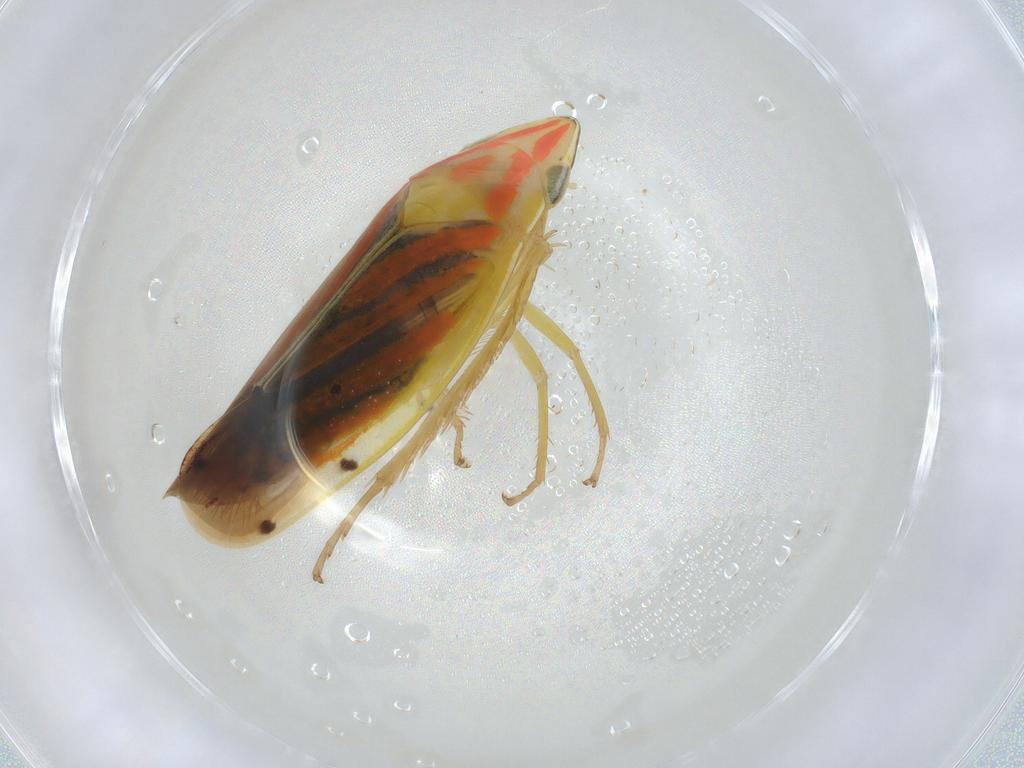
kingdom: Animalia
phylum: Arthropoda
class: Insecta
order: Hemiptera
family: Cicadellidae
